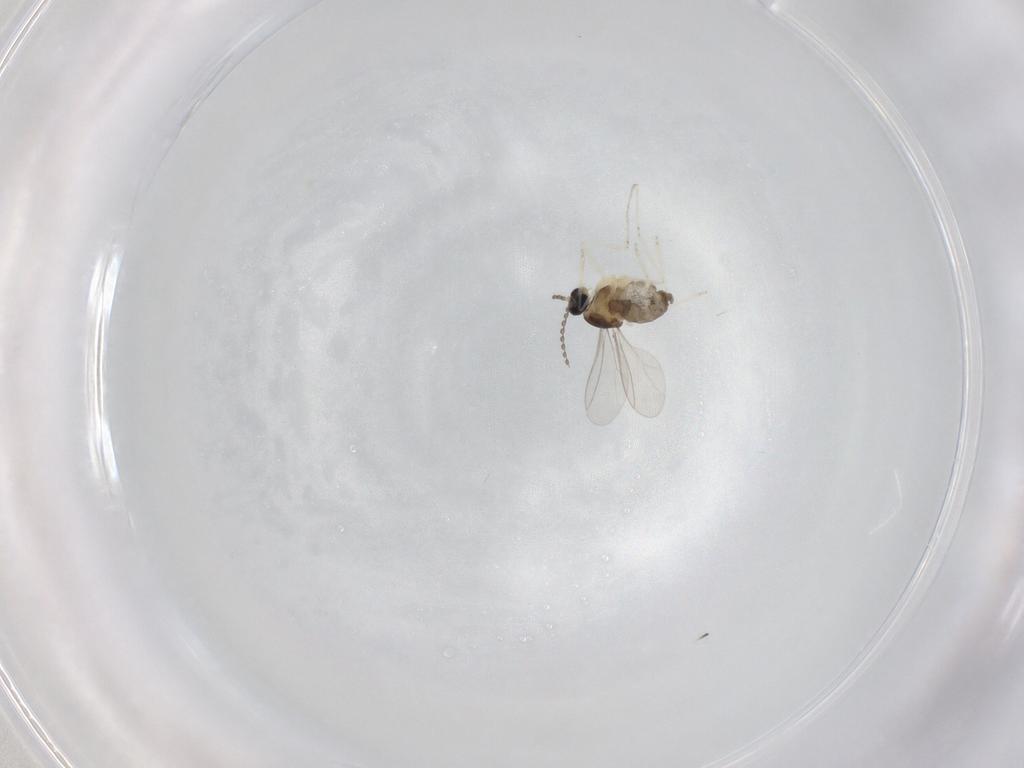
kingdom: Animalia
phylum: Arthropoda
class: Insecta
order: Diptera
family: Cecidomyiidae
